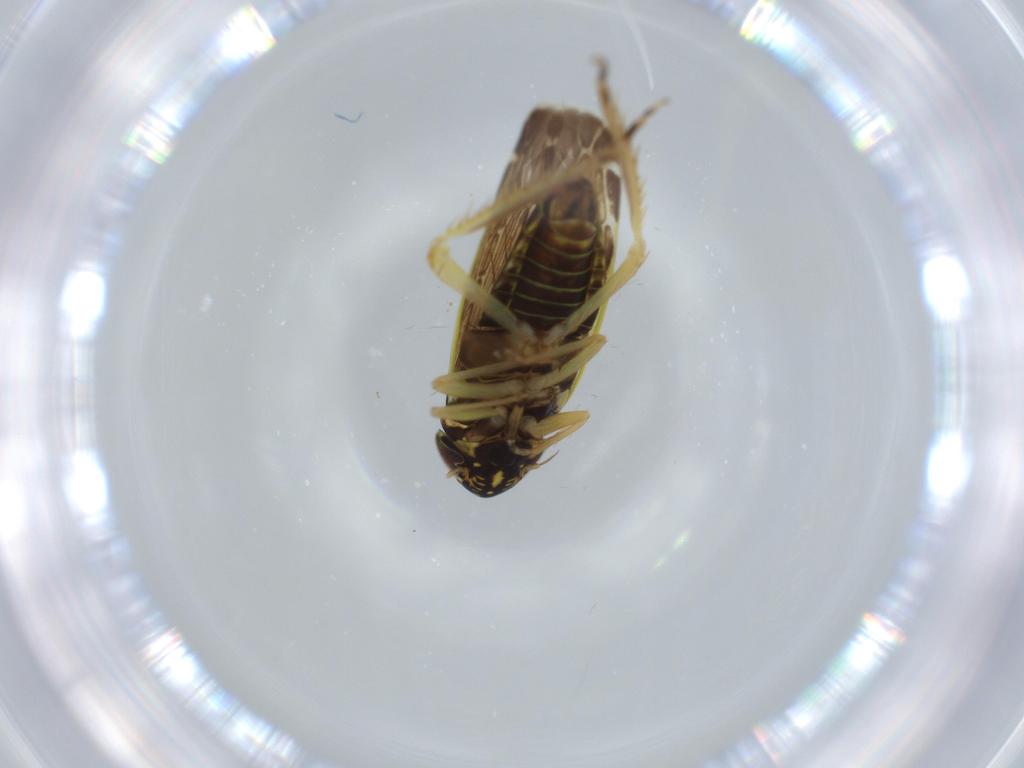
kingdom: Animalia
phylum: Arthropoda
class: Insecta
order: Hemiptera
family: Cicadellidae
